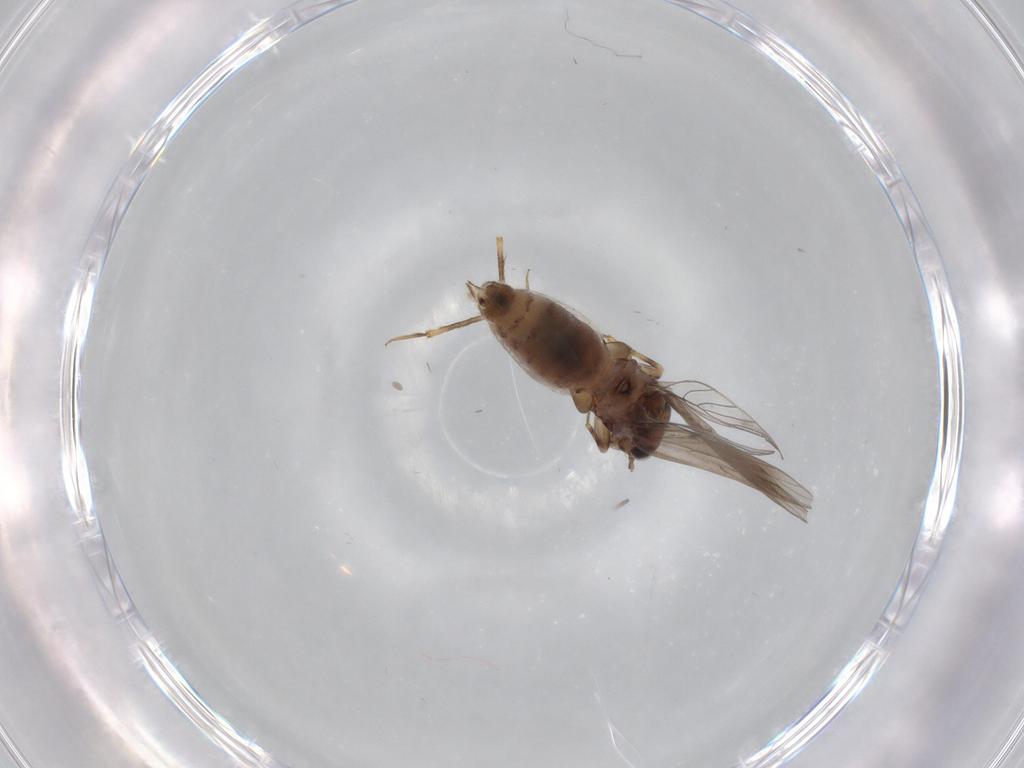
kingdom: Animalia
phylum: Arthropoda
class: Insecta
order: Psocodea
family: Lepidopsocidae
